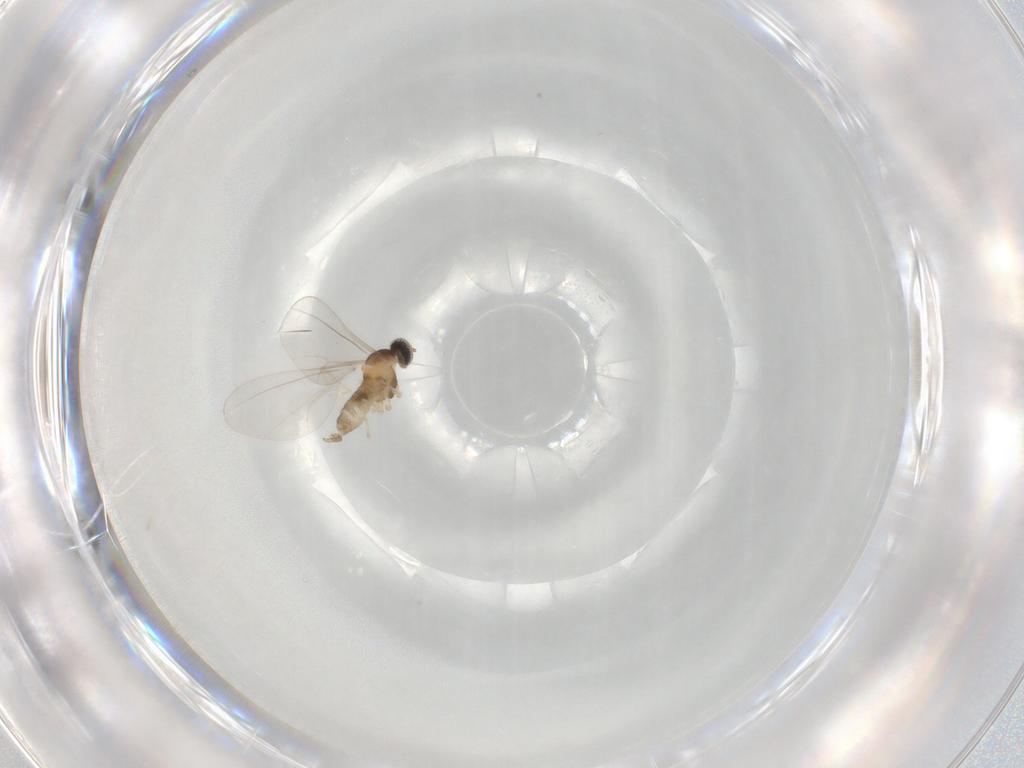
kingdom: Animalia
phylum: Arthropoda
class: Insecta
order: Diptera
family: Cecidomyiidae
